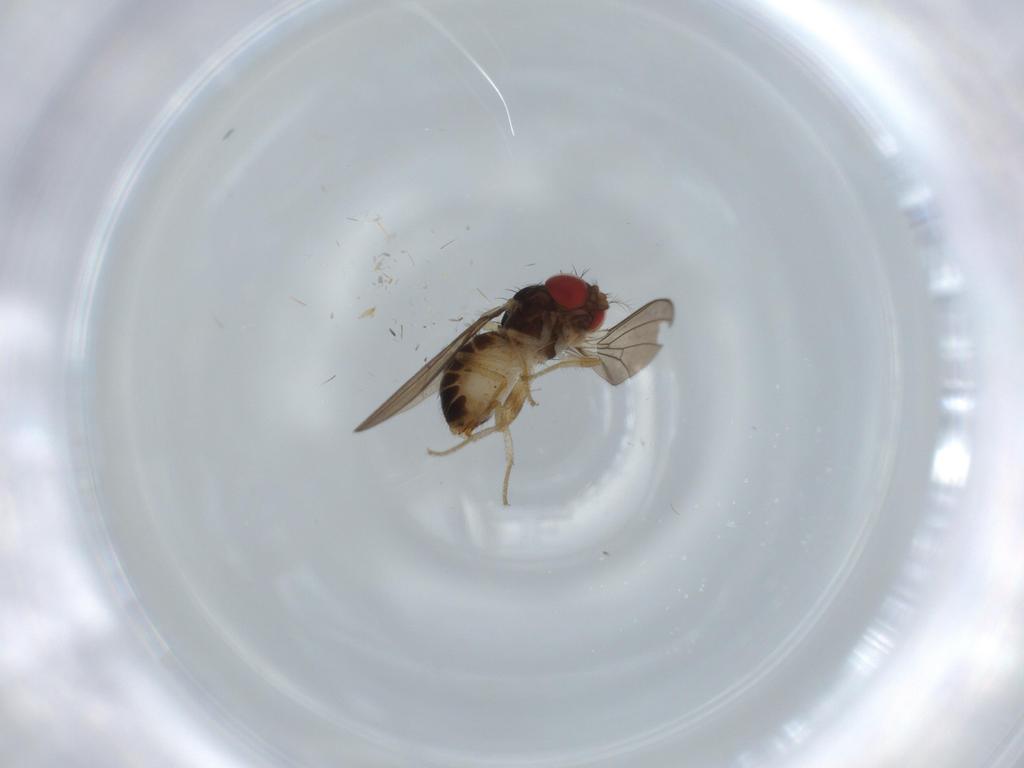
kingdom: Animalia
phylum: Arthropoda
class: Insecta
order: Diptera
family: Drosophilidae
